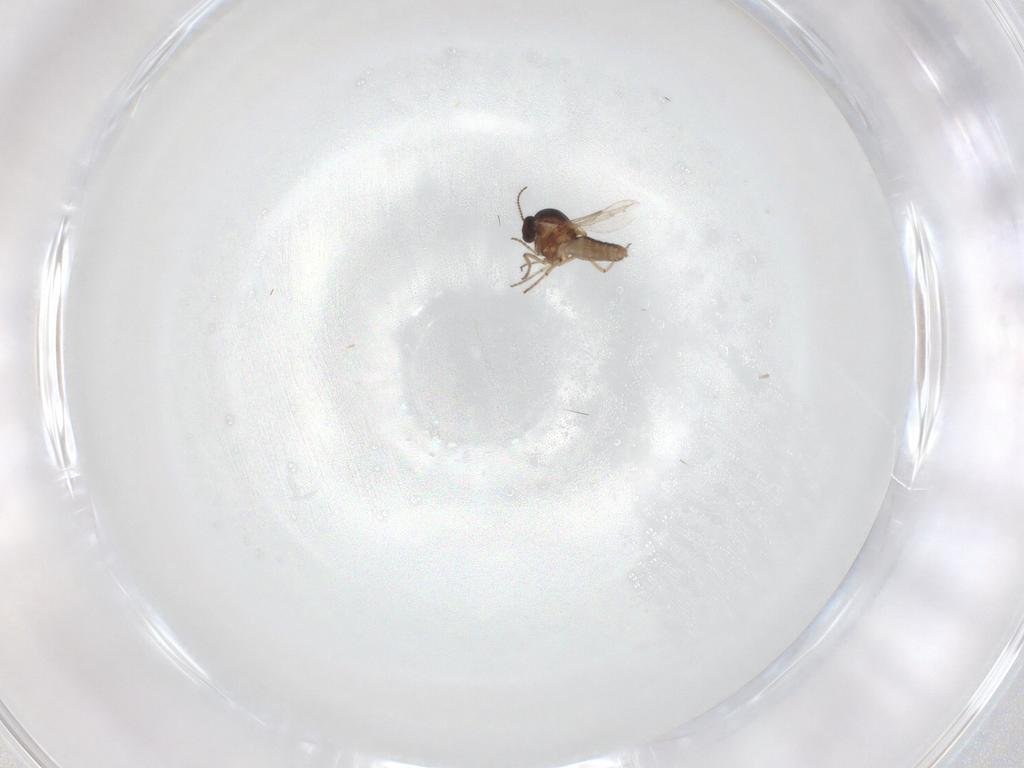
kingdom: Animalia
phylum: Arthropoda
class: Insecta
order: Diptera
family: Ceratopogonidae
